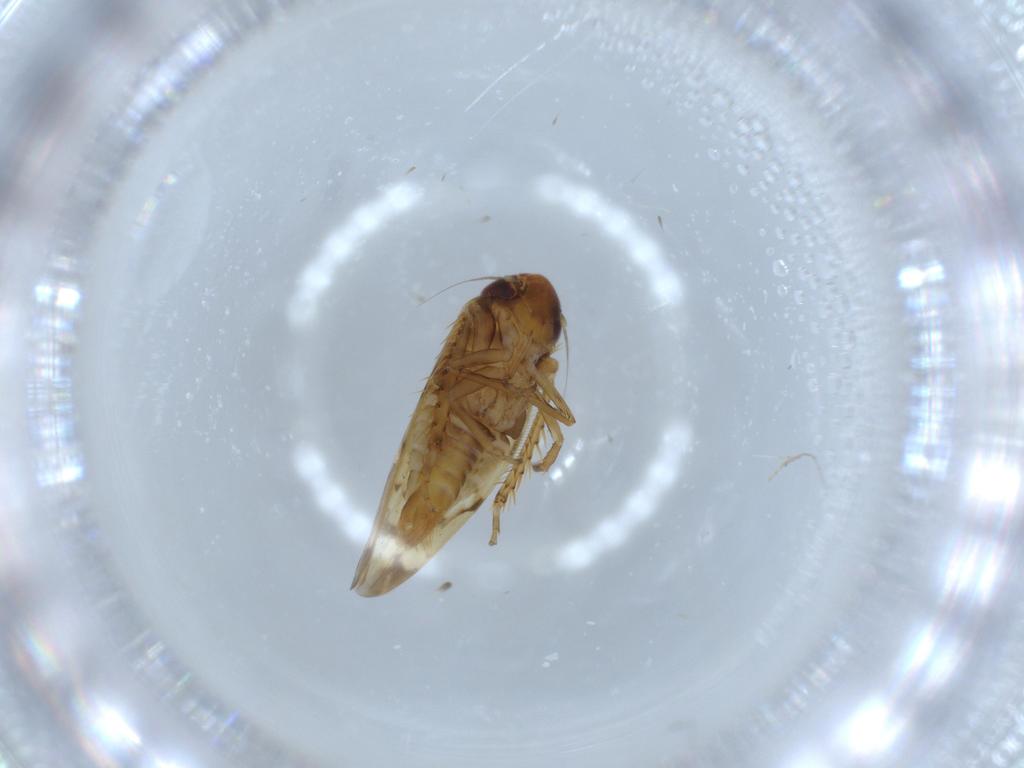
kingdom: Animalia
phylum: Arthropoda
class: Insecta
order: Hemiptera
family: Cicadellidae
